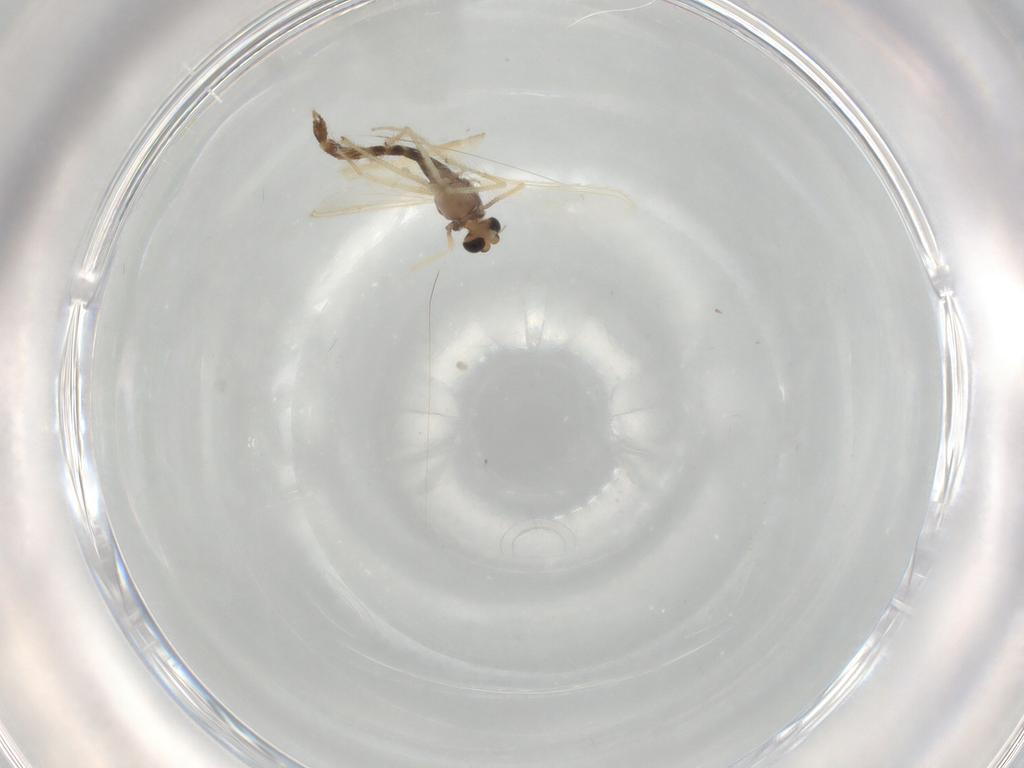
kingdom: Animalia
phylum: Arthropoda
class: Insecta
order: Diptera
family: Chironomidae
